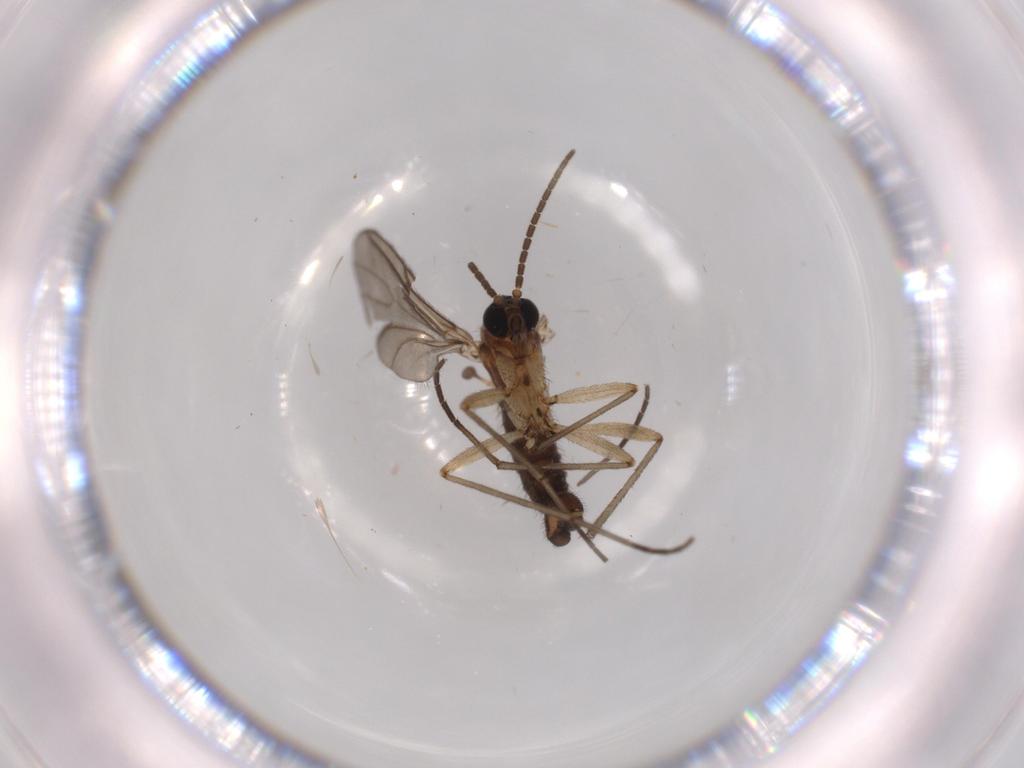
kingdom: Animalia
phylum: Arthropoda
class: Insecta
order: Diptera
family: Sciaridae
